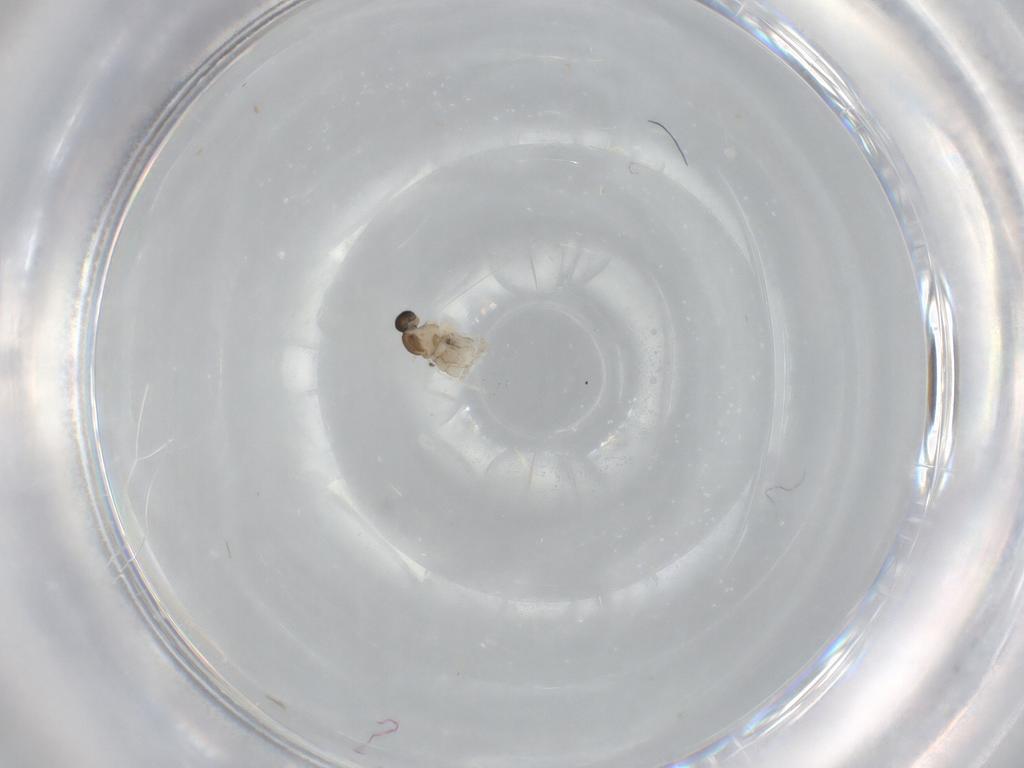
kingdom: Animalia
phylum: Arthropoda
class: Insecta
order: Diptera
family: Cecidomyiidae
